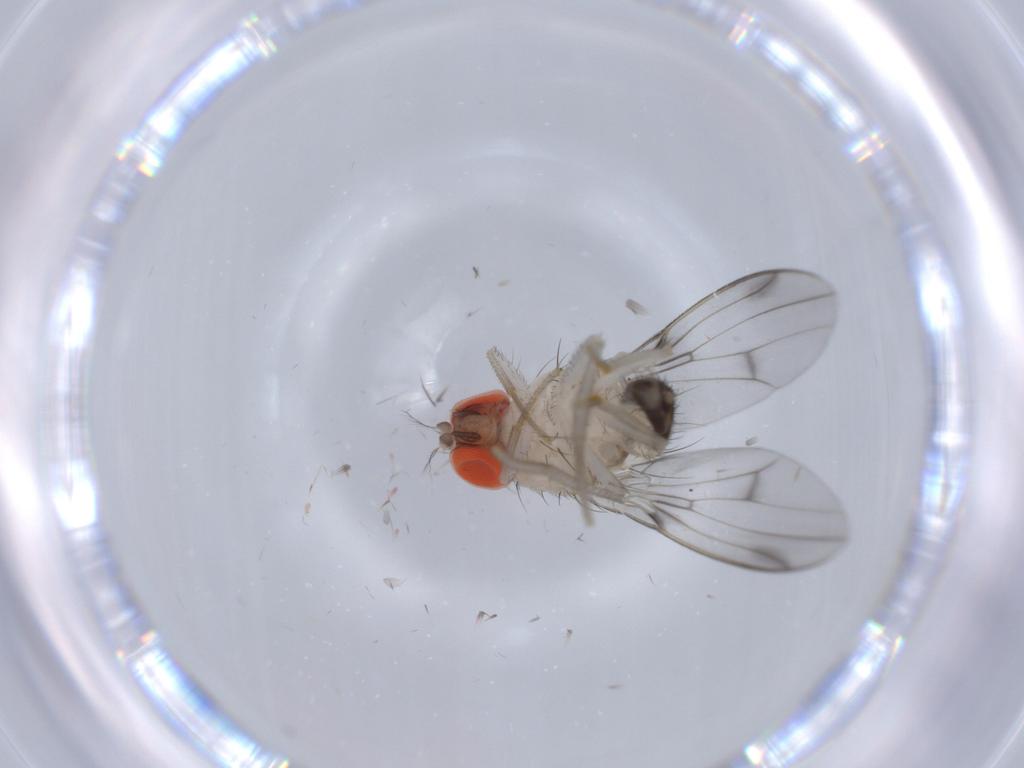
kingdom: Animalia
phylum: Arthropoda
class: Insecta
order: Diptera
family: Drosophilidae
